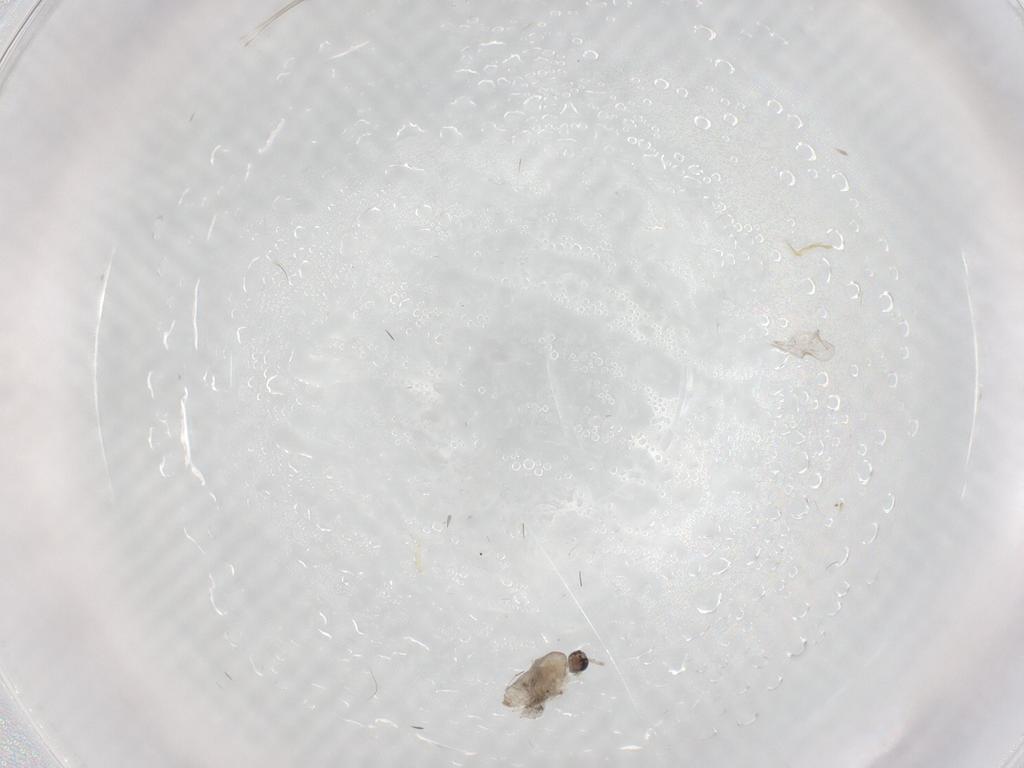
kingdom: Animalia
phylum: Arthropoda
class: Insecta
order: Diptera
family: Cecidomyiidae
